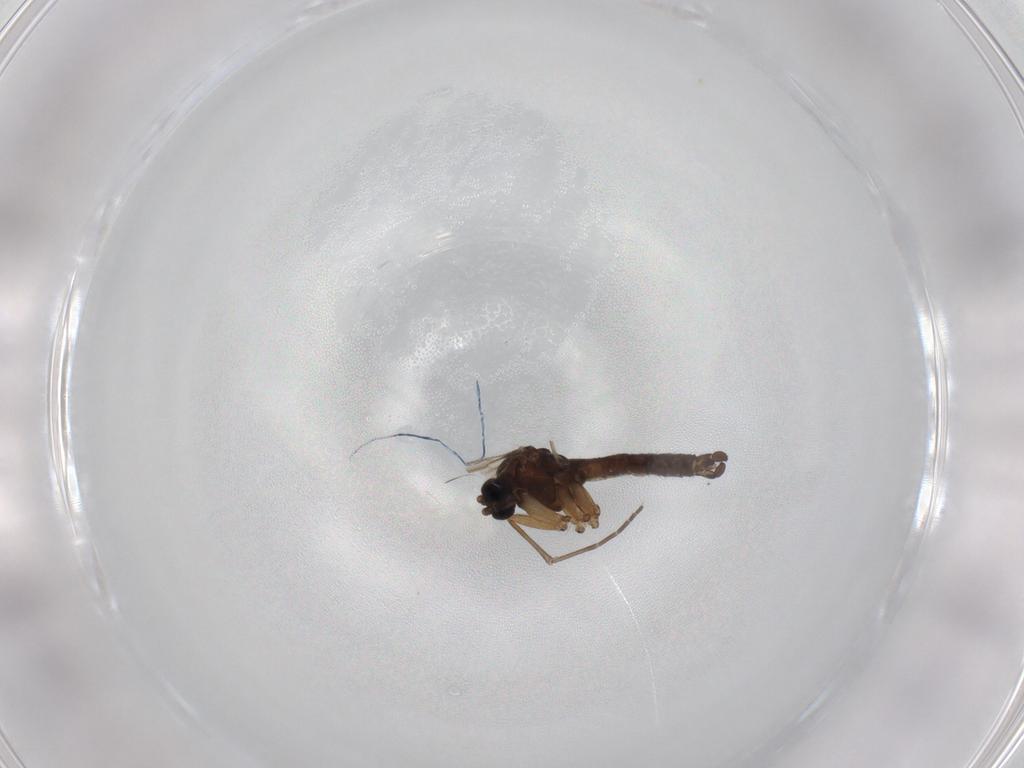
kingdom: Animalia
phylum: Arthropoda
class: Insecta
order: Diptera
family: Sciaridae
